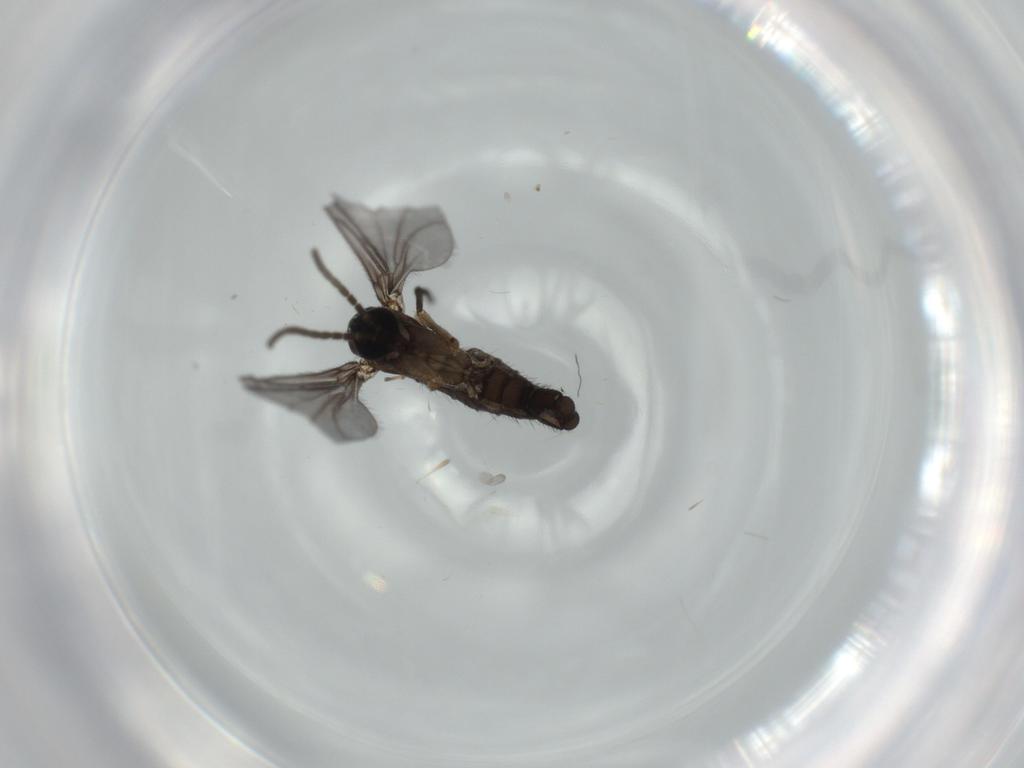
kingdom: Animalia
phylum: Arthropoda
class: Insecta
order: Diptera
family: Sciaridae
